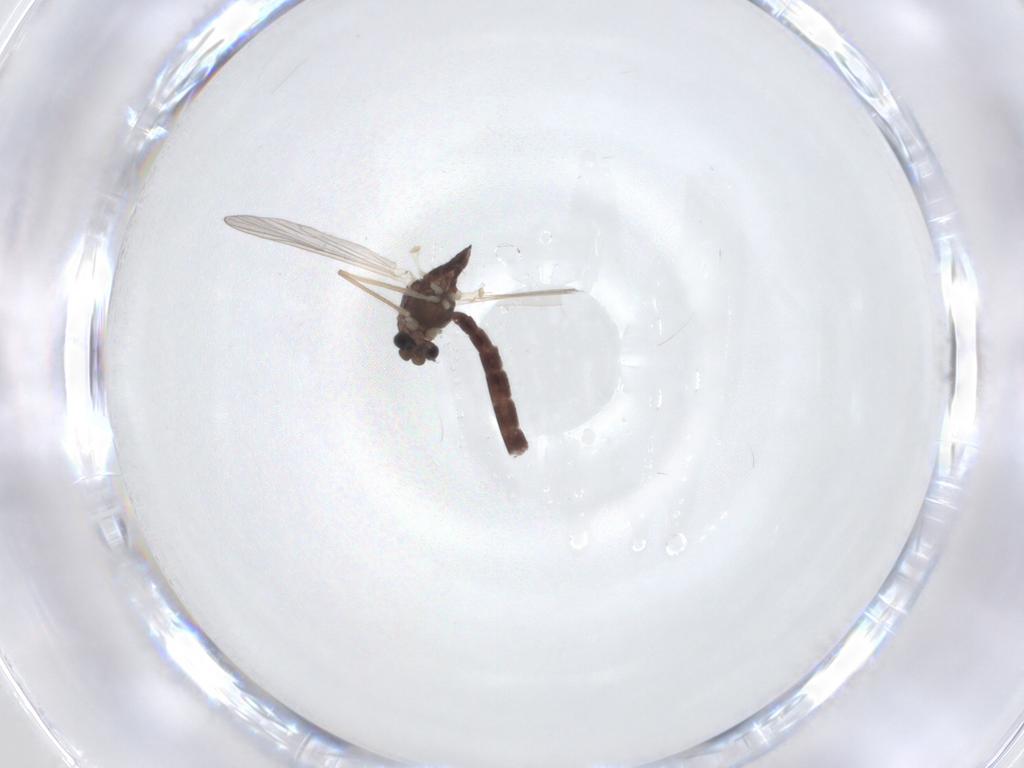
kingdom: Animalia
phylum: Arthropoda
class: Insecta
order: Diptera
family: Chironomidae
